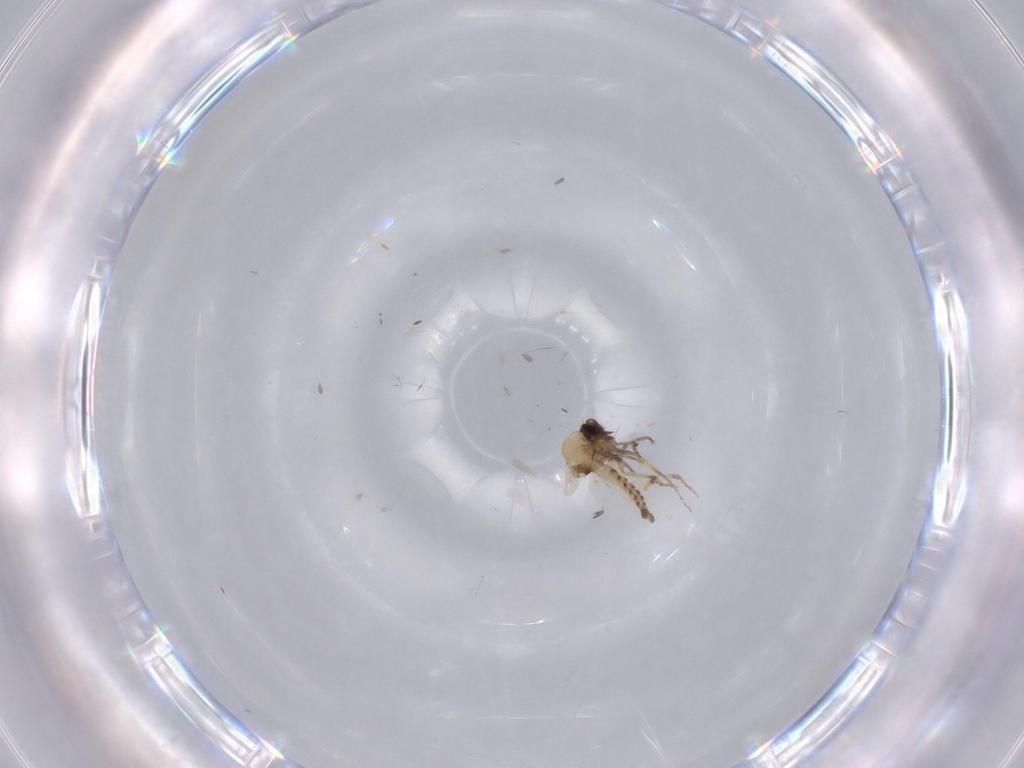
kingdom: Animalia
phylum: Arthropoda
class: Insecta
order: Diptera
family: Ceratopogonidae
